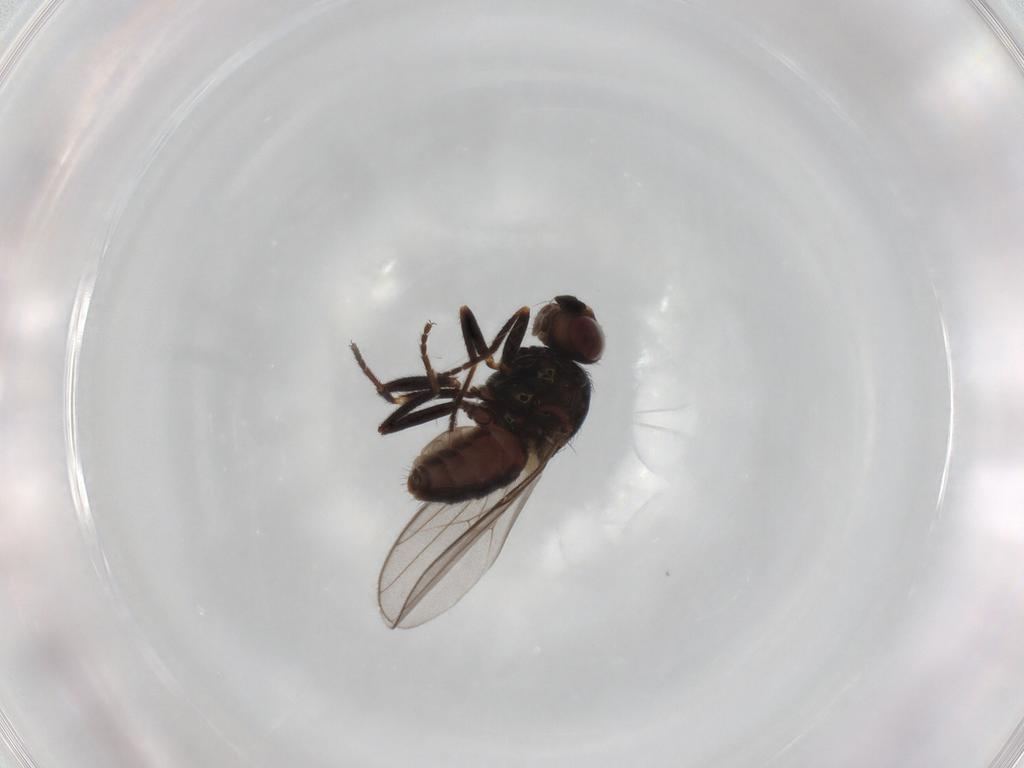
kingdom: Animalia
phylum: Arthropoda
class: Insecta
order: Diptera
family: Chloropidae
